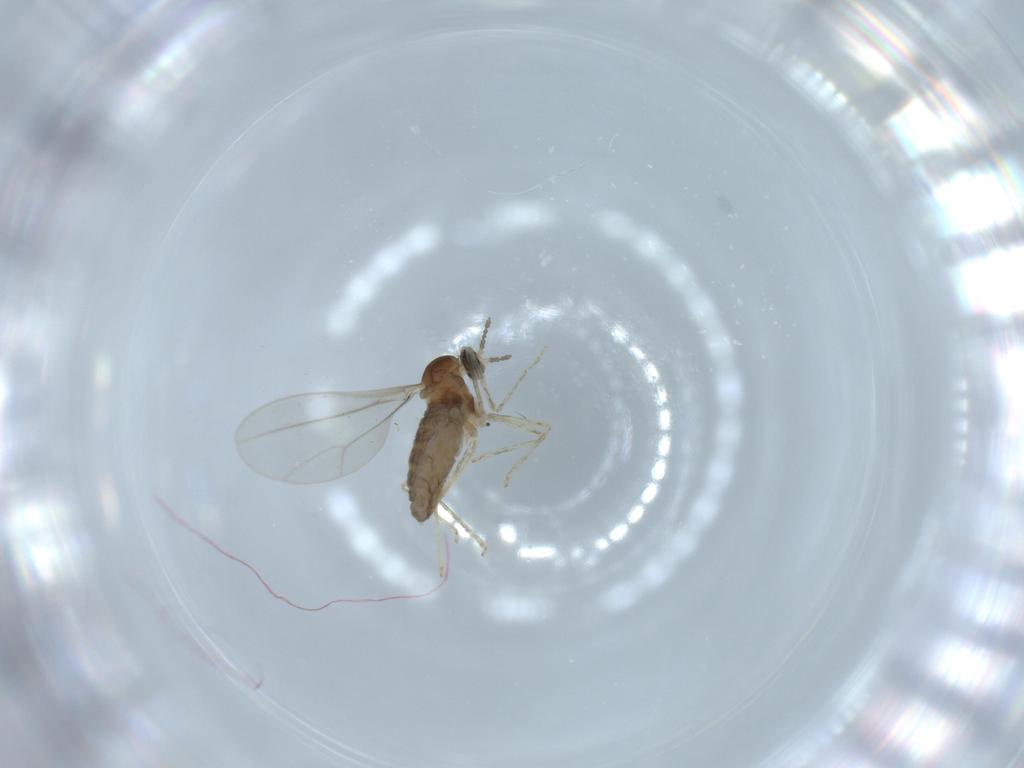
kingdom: Animalia
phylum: Arthropoda
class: Insecta
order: Diptera
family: Cecidomyiidae
